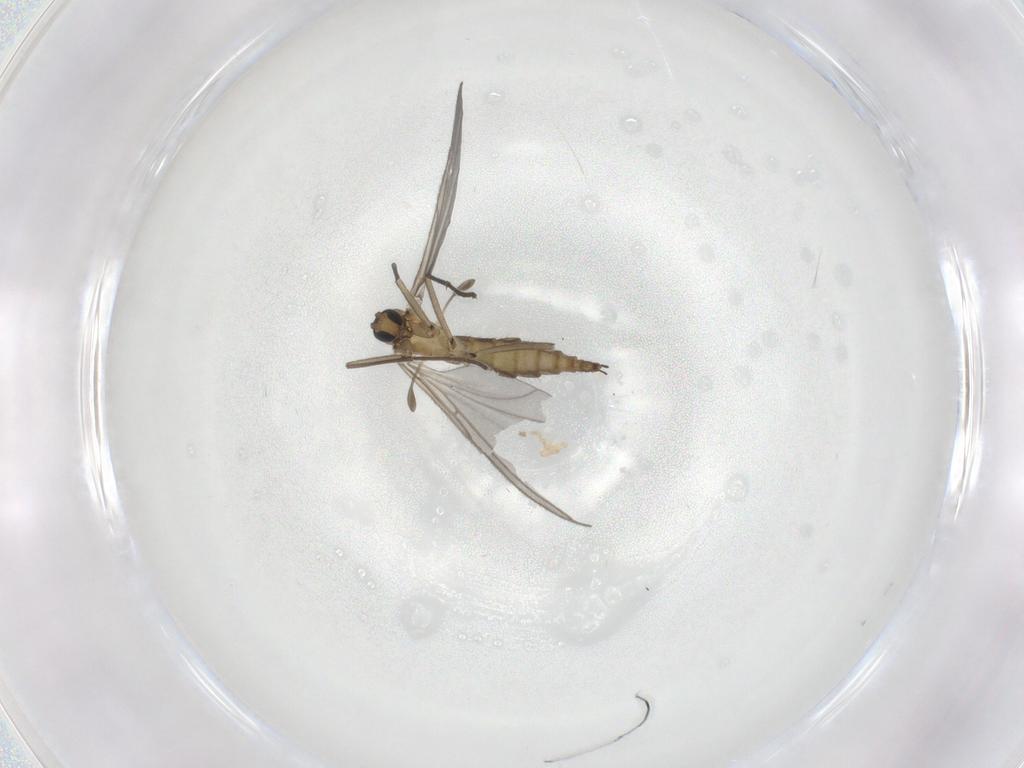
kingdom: Animalia
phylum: Arthropoda
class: Insecta
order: Diptera
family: Sciaridae
